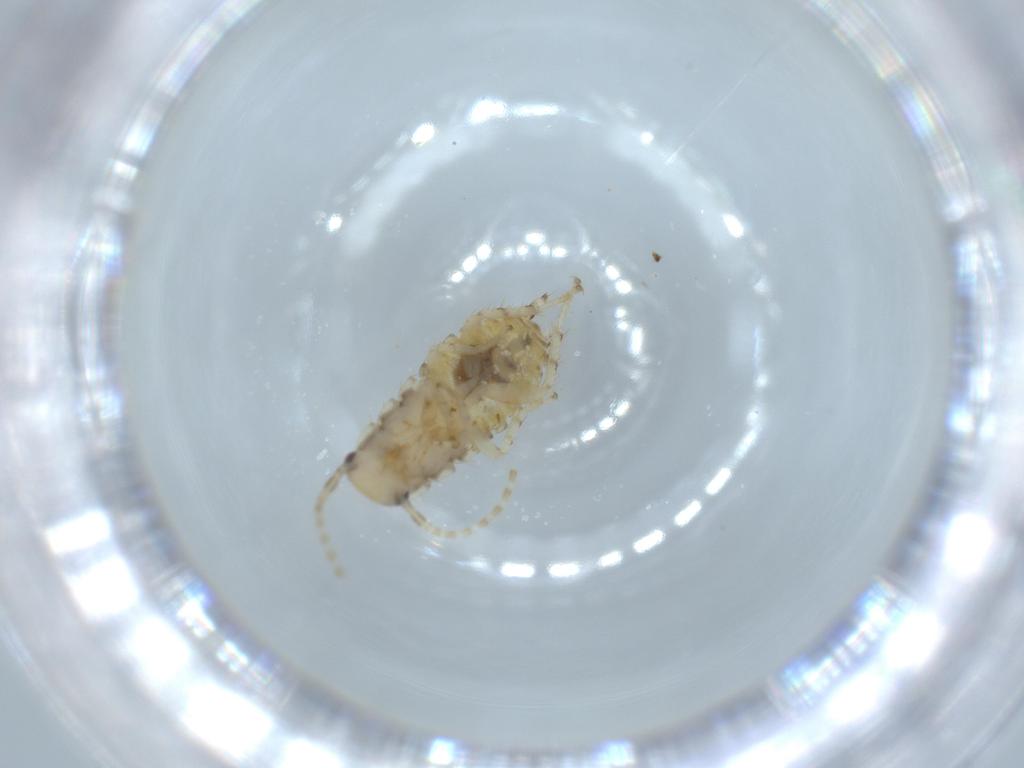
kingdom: Animalia
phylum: Arthropoda
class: Insecta
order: Blattodea
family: Ectobiidae
